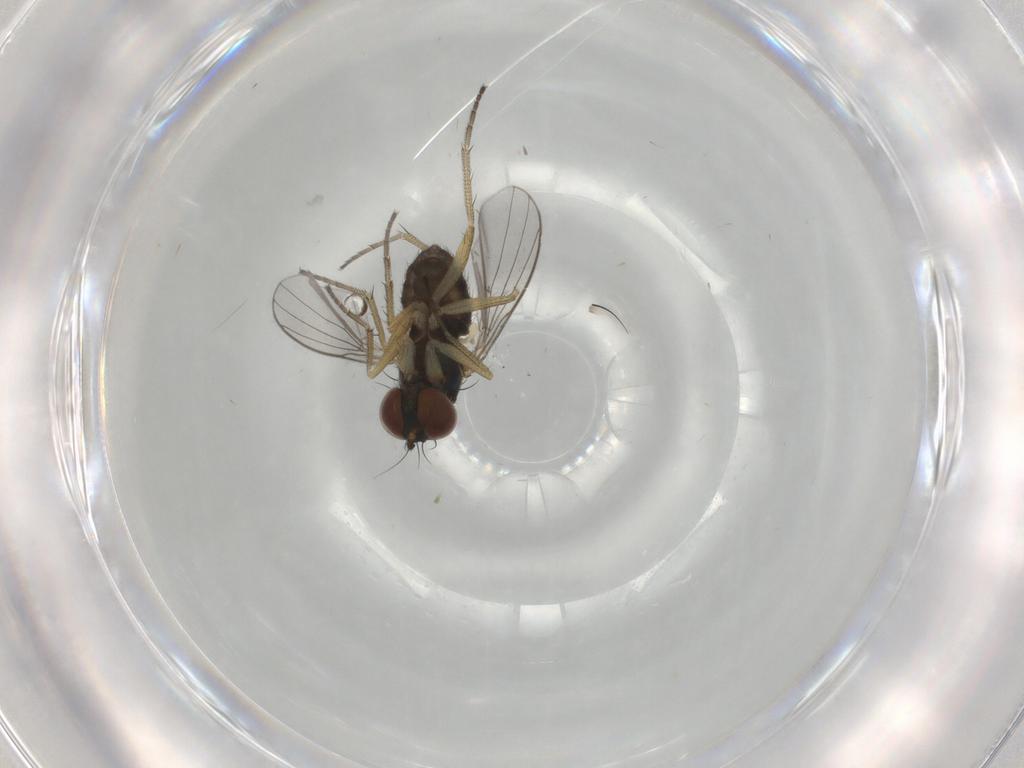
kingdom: Animalia
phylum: Arthropoda
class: Insecta
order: Diptera
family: Dolichopodidae
